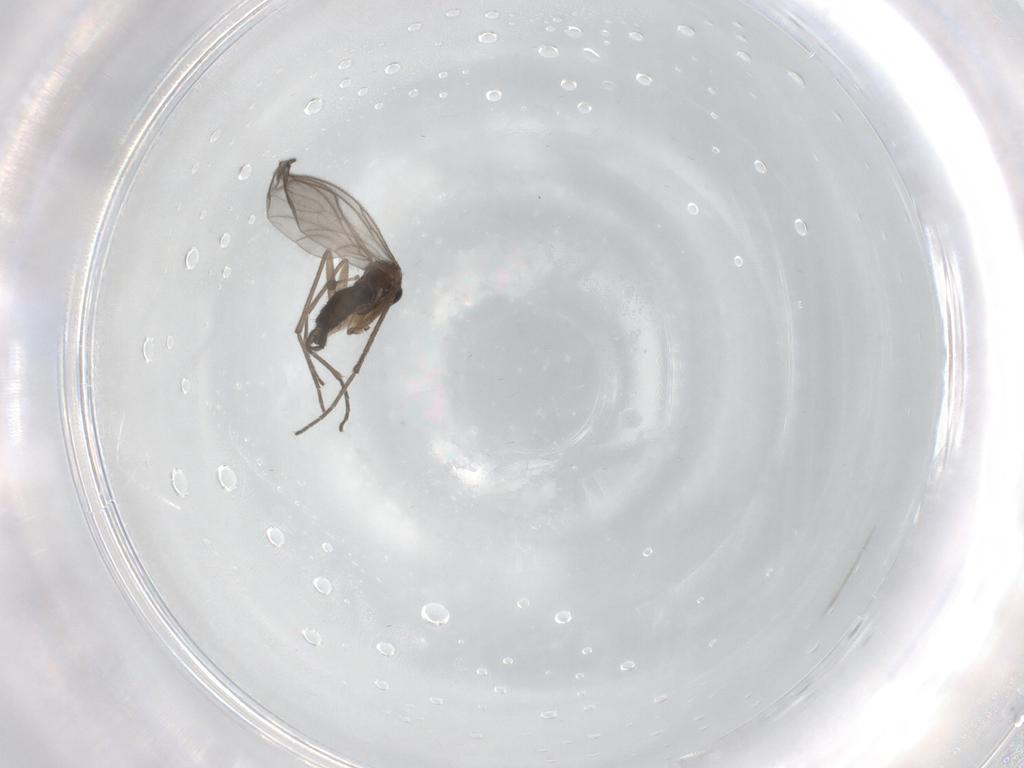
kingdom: Animalia
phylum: Arthropoda
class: Insecta
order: Diptera
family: Sciaridae
